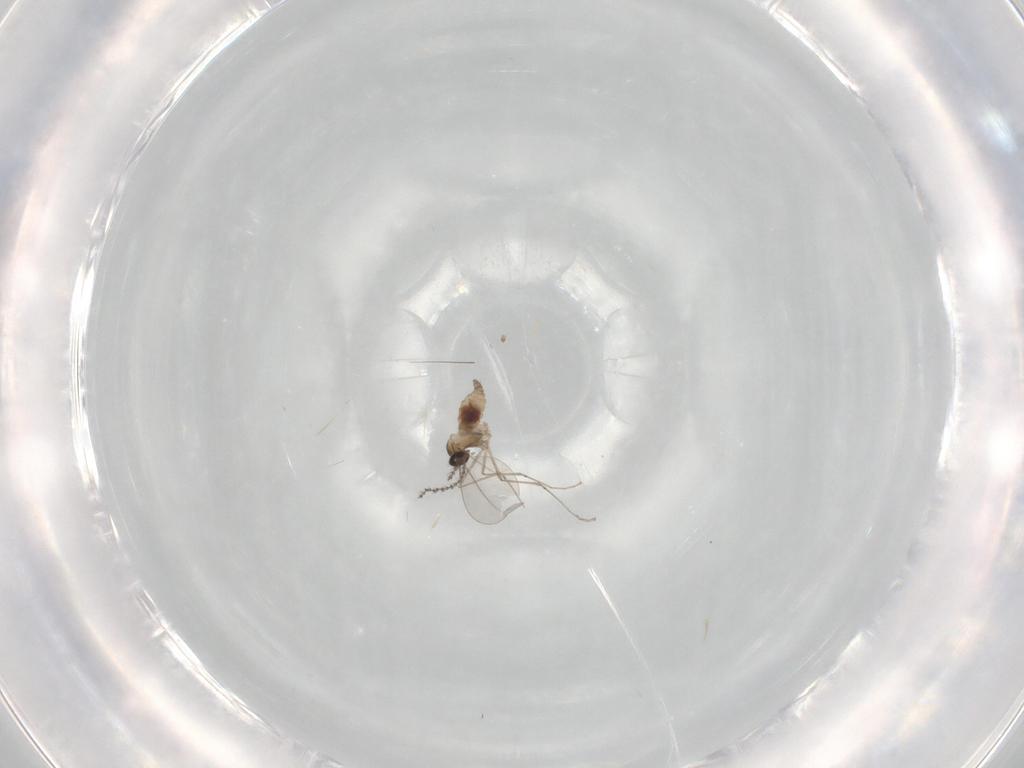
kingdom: Animalia
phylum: Arthropoda
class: Insecta
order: Diptera
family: Cecidomyiidae
